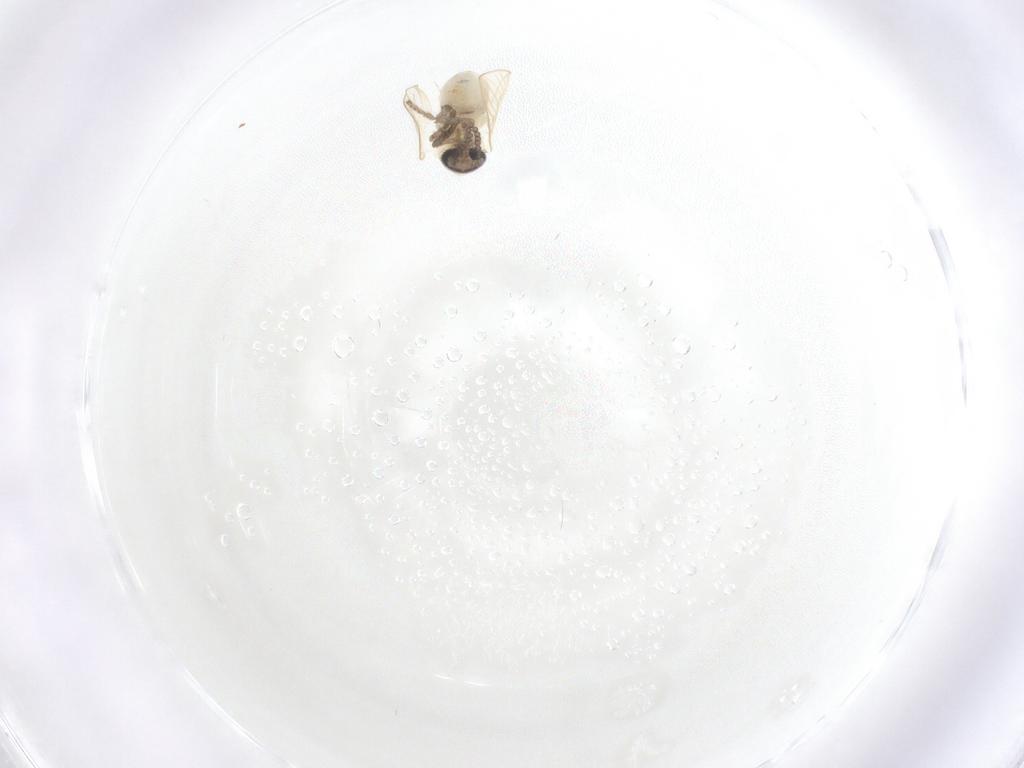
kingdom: Animalia
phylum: Arthropoda
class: Insecta
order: Diptera
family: Psychodidae
